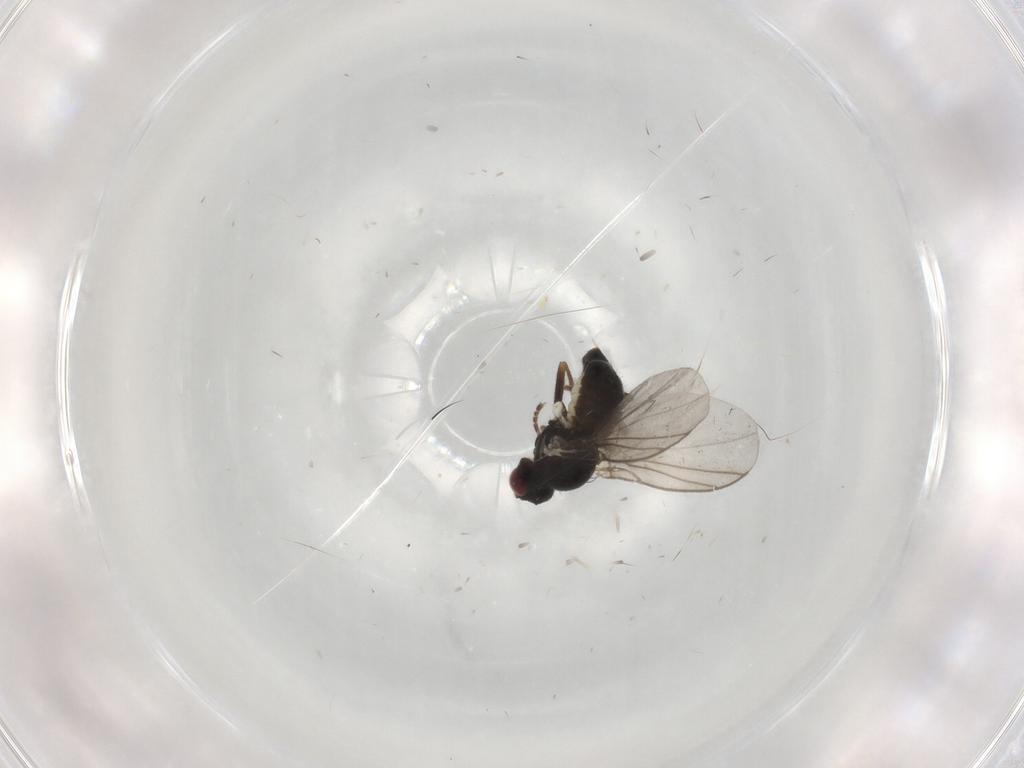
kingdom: Animalia
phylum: Arthropoda
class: Insecta
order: Diptera
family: Agromyzidae
